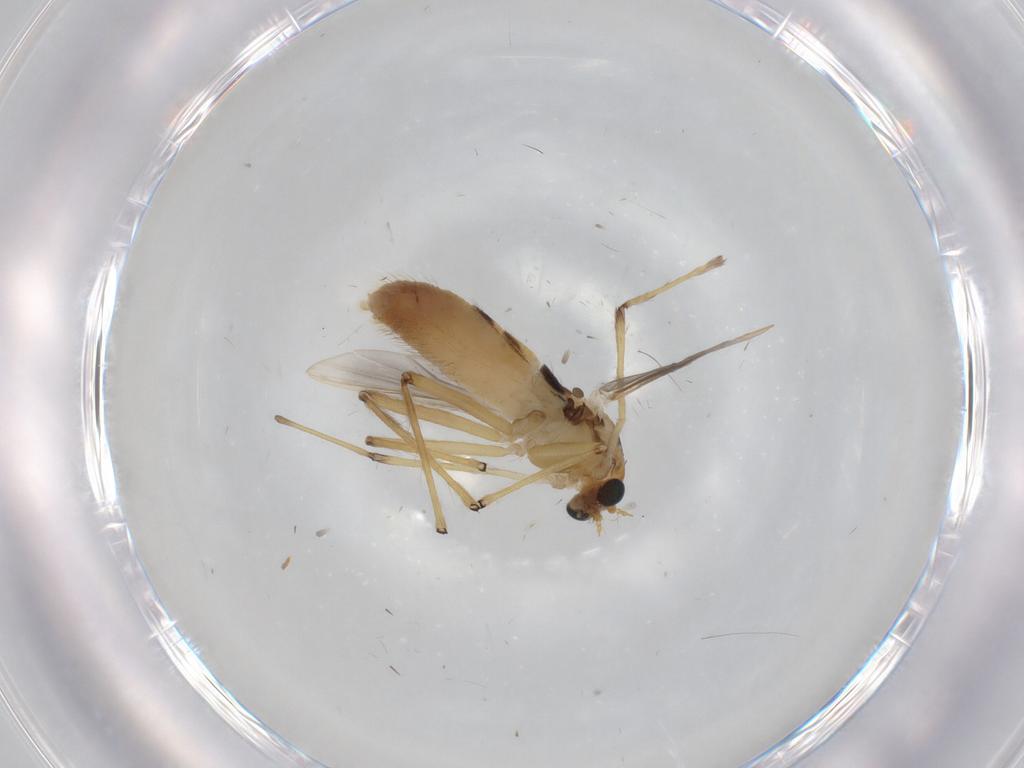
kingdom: Animalia
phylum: Arthropoda
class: Insecta
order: Diptera
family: Chironomidae
